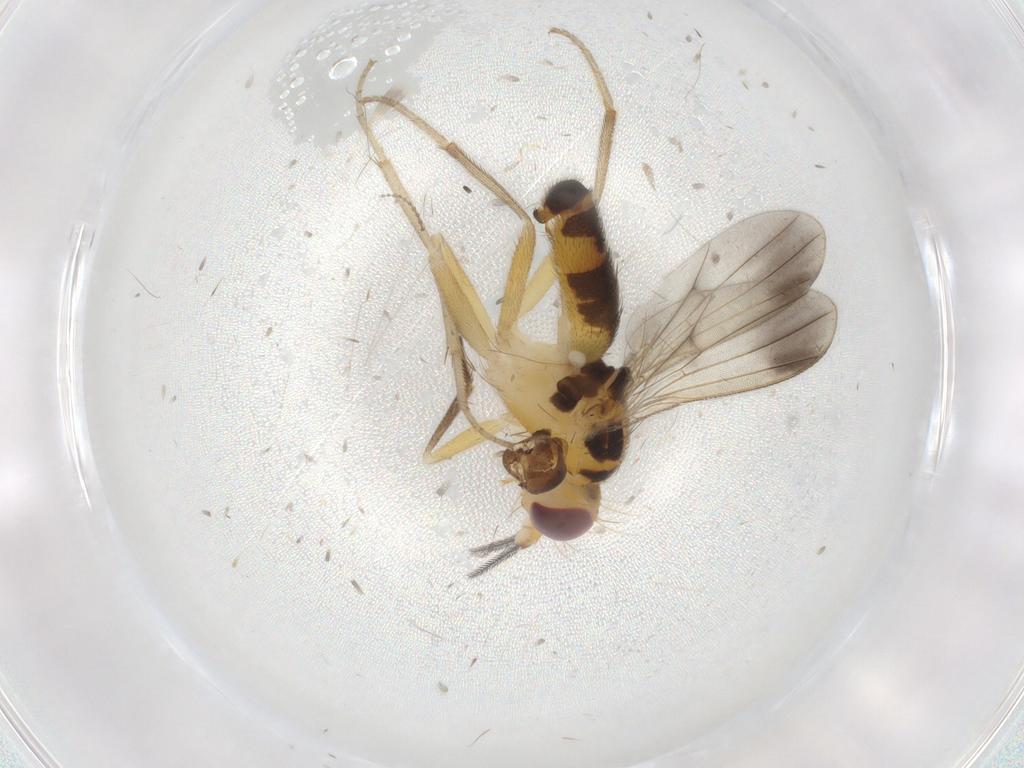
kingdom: Animalia
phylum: Arthropoda
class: Insecta
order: Diptera
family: Clusiidae
